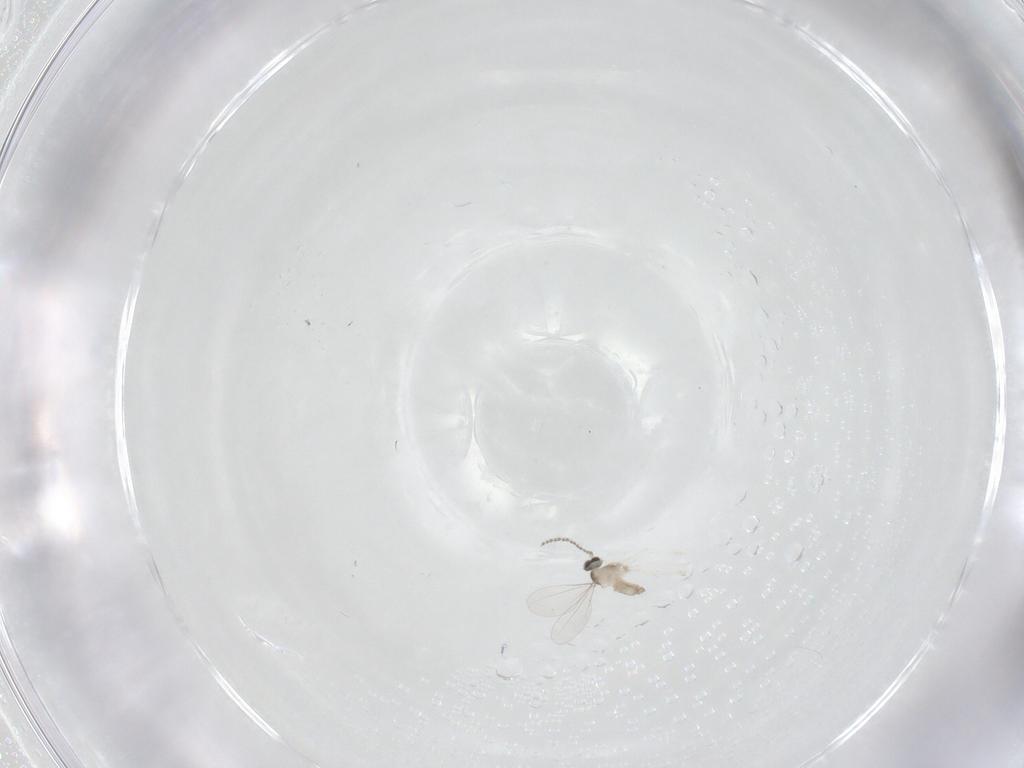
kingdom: Animalia
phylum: Arthropoda
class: Insecta
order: Diptera
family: Cecidomyiidae
